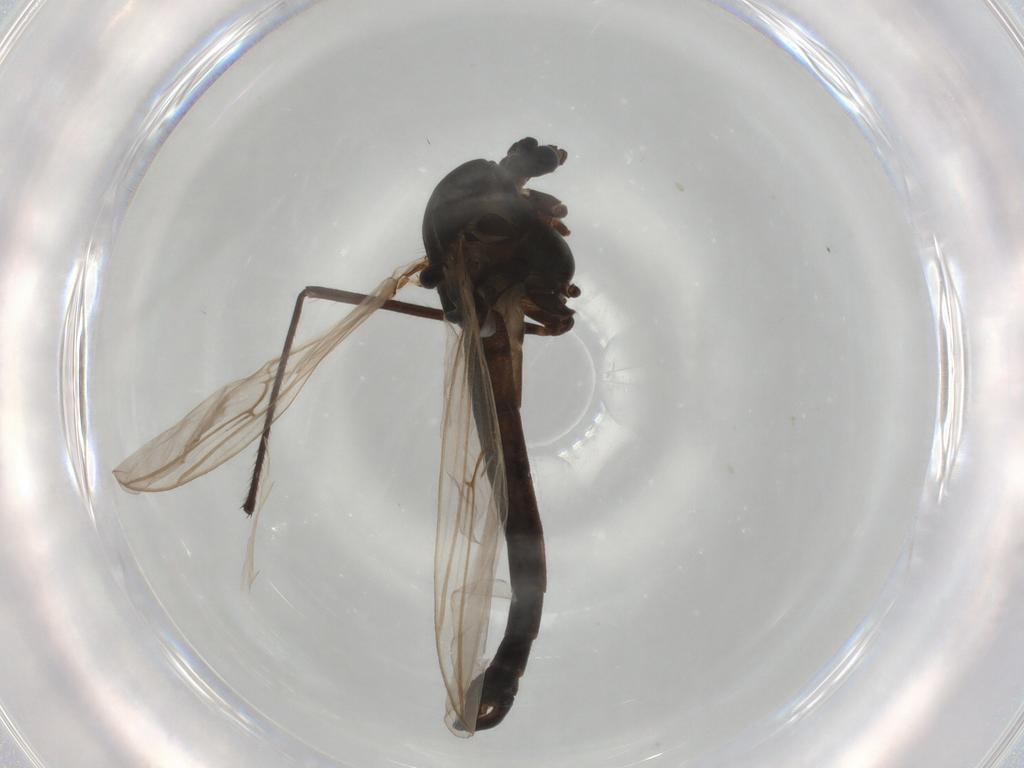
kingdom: Animalia
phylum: Arthropoda
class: Insecta
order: Diptera
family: Chironomidae
